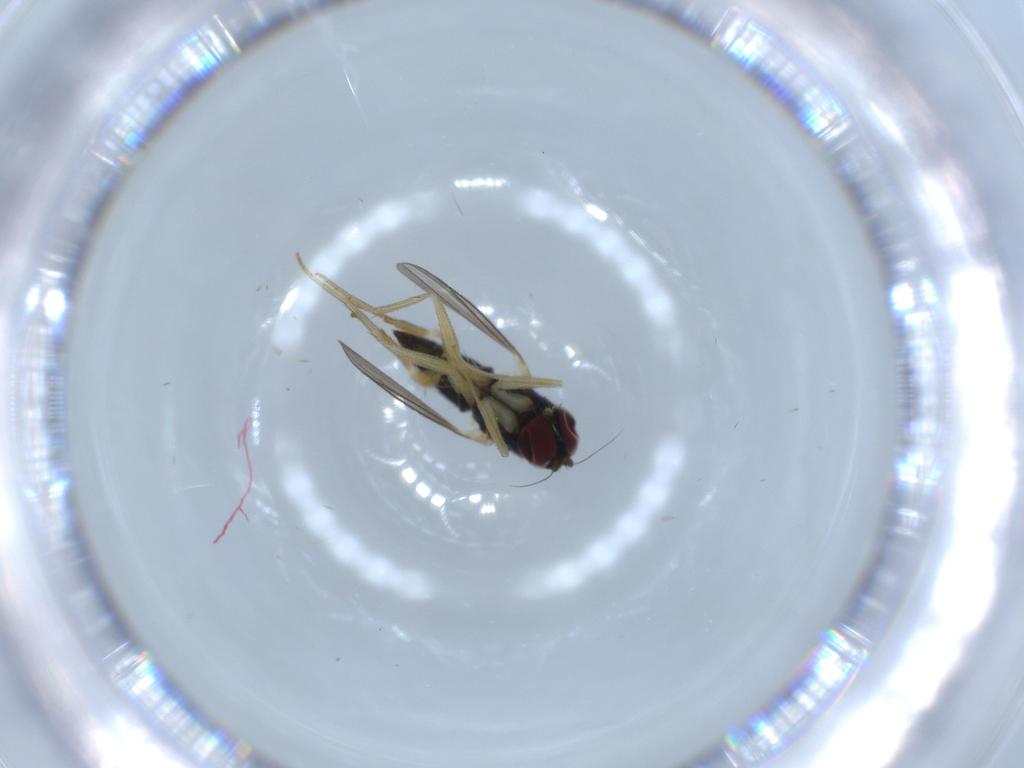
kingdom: Animalia
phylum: Arthropoda
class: Insecta
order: Diptera
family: Dolichopodidae
